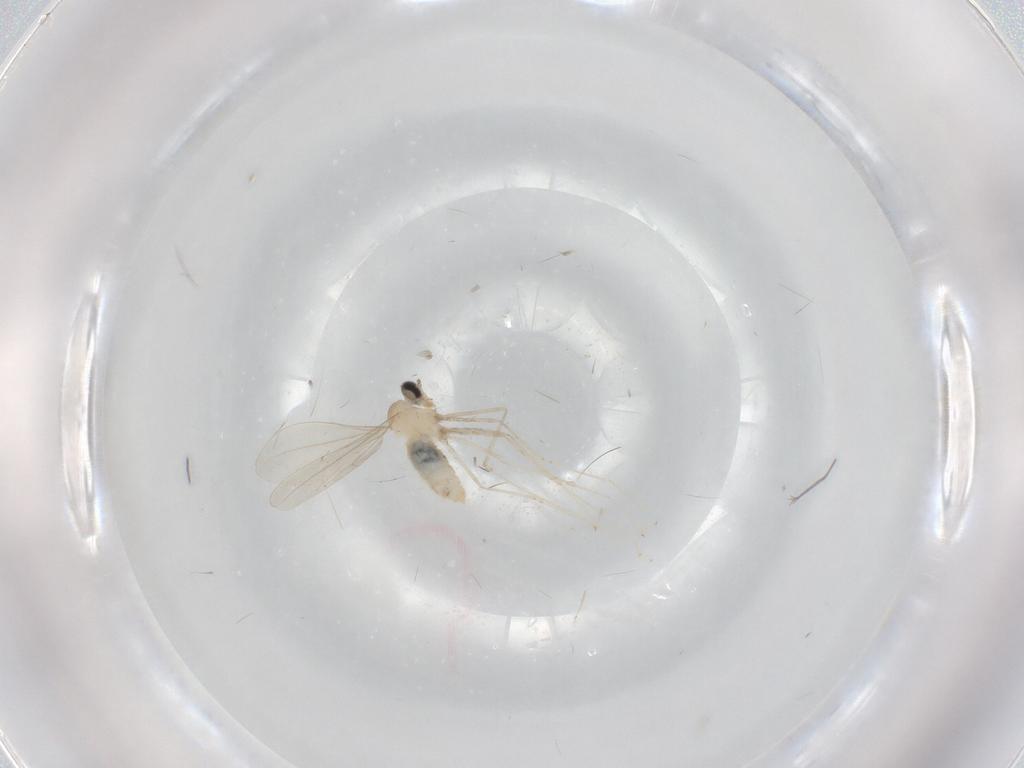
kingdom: Animalia
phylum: Arthropoda
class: Insecta
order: Diptera
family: Cecidomyiidae
